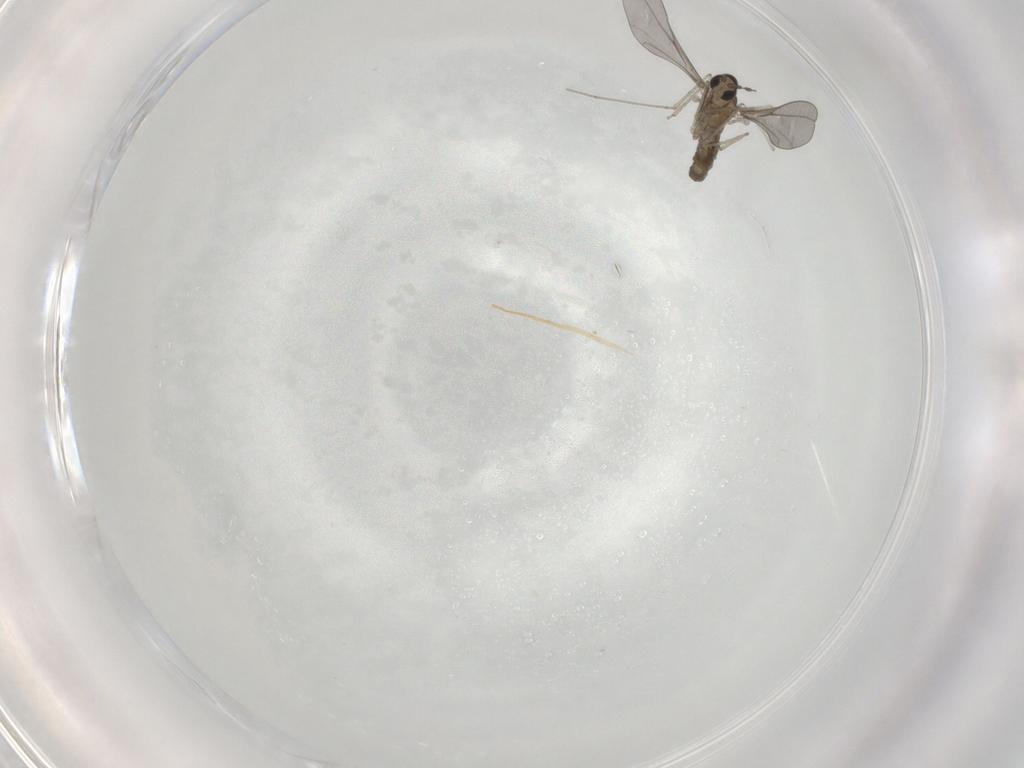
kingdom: Animalia
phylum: Arthropoda
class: Insecta
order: Diptera
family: Cecidomyiidae
